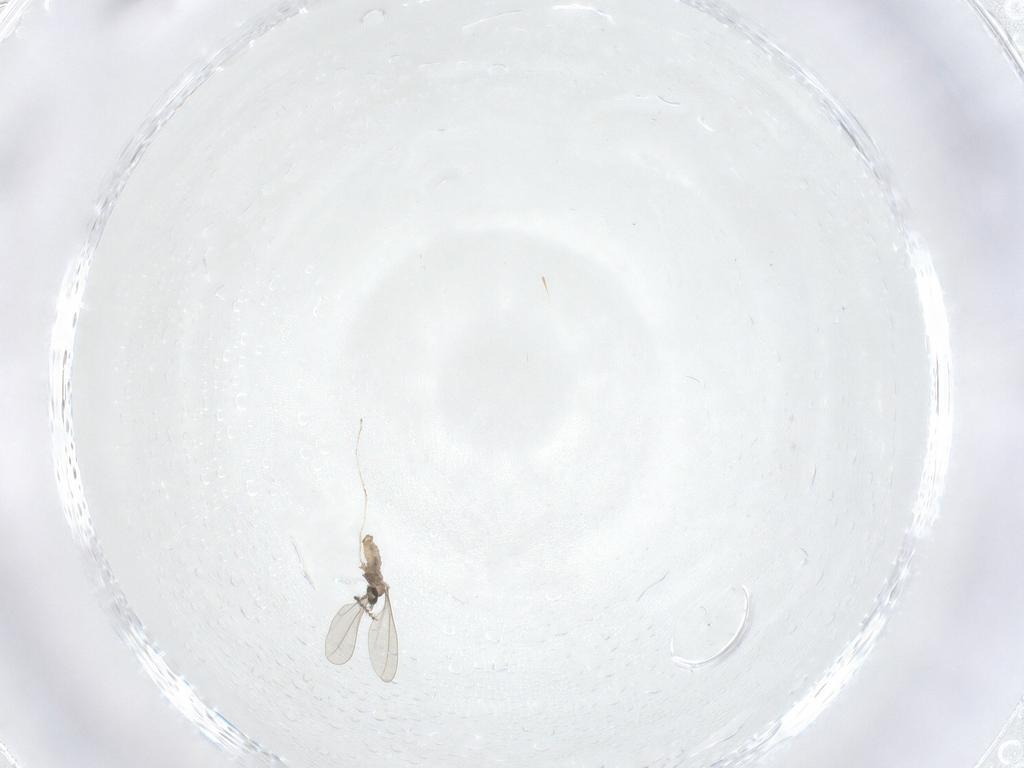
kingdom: Animalia
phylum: Arthropoda
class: Insecta
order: Diptera
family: Cecidomyiidae
